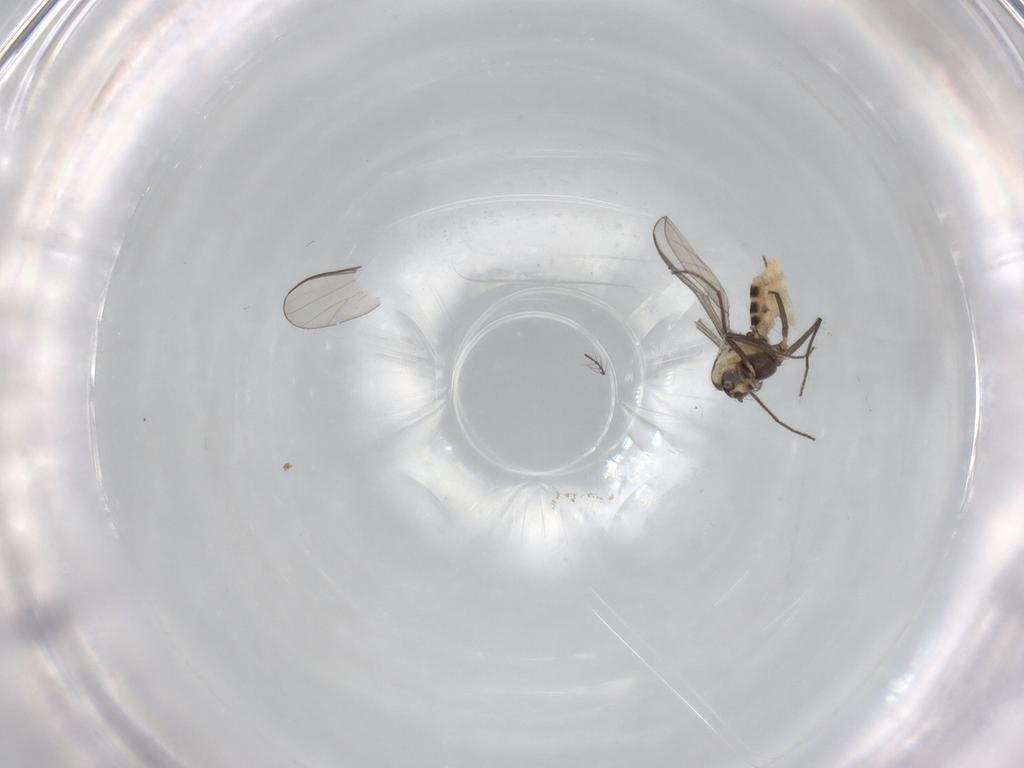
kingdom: Animalia
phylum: Arthropoda
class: Insecta
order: Diptera
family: Chironomidae
